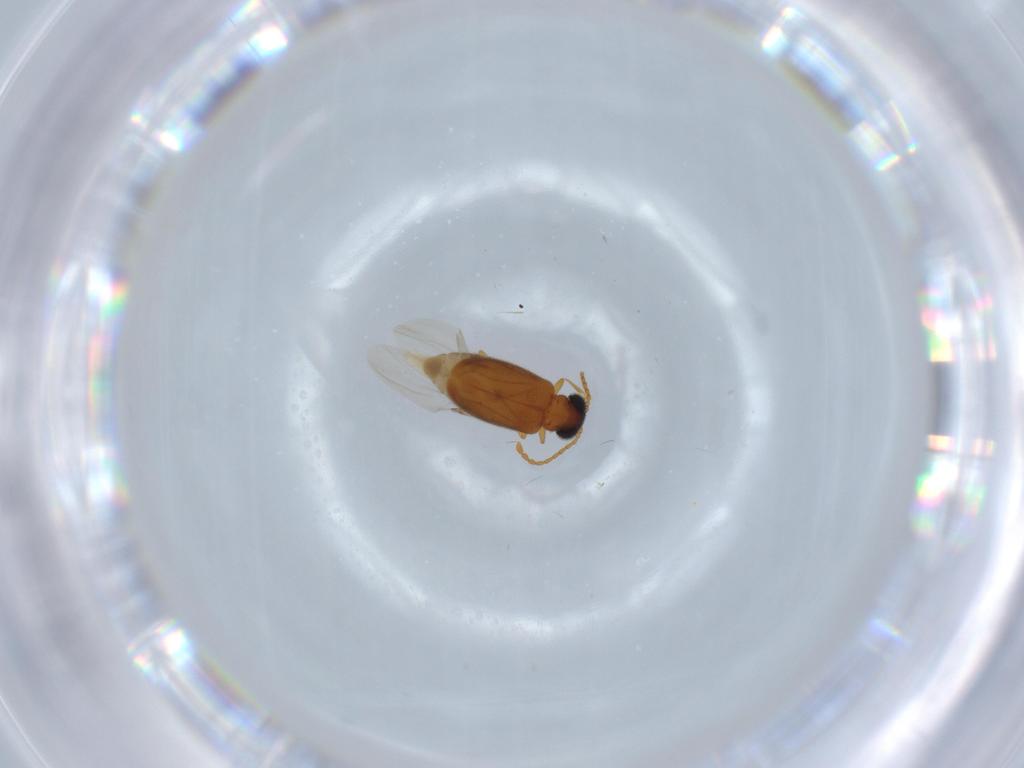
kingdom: Animalia
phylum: Arthropoda
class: Insecta
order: Coleoptera
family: Aderidae
